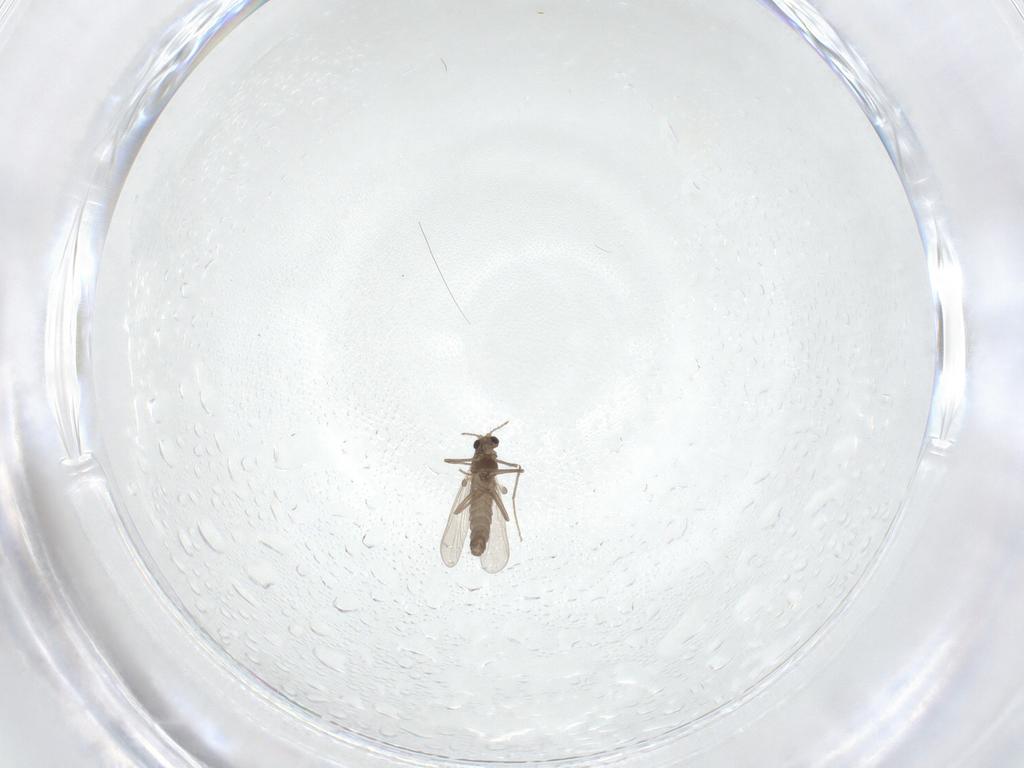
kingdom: Animalia
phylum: Arthropoda
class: Insecta
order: Diptera
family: Chironomidae
